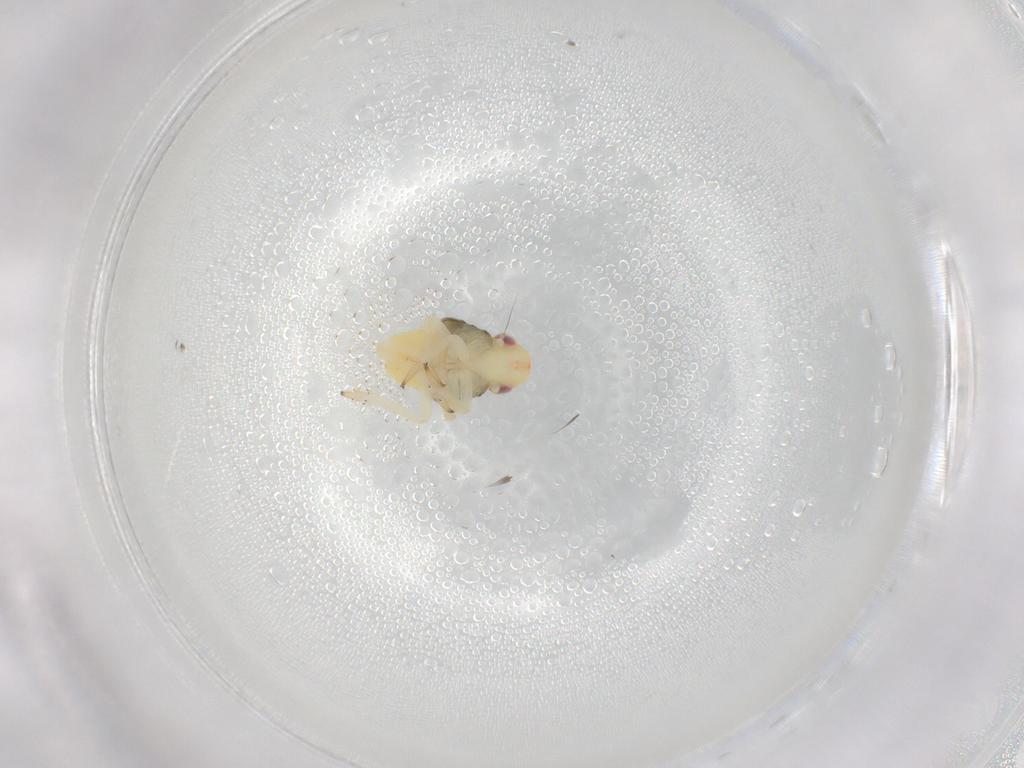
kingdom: Animalia
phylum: Arthropoda
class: Insecta
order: Hemiptera
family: Caliscelidae
